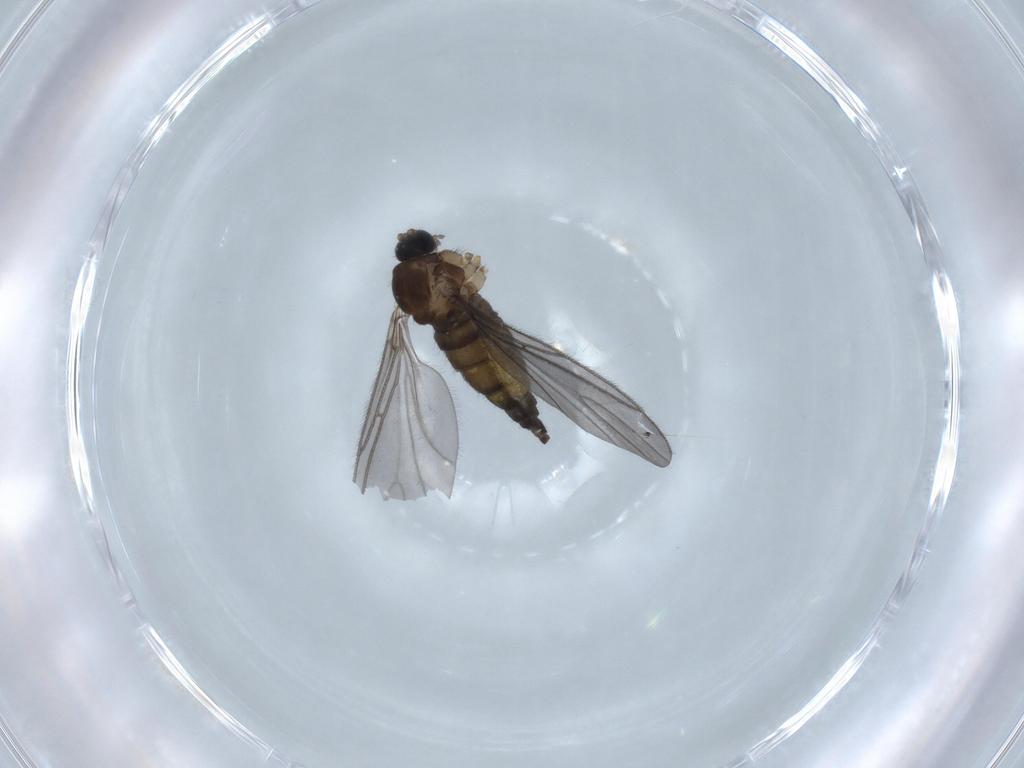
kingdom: Animalia
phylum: Arthropoda
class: Insecta
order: Diptera
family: Sciaridae
